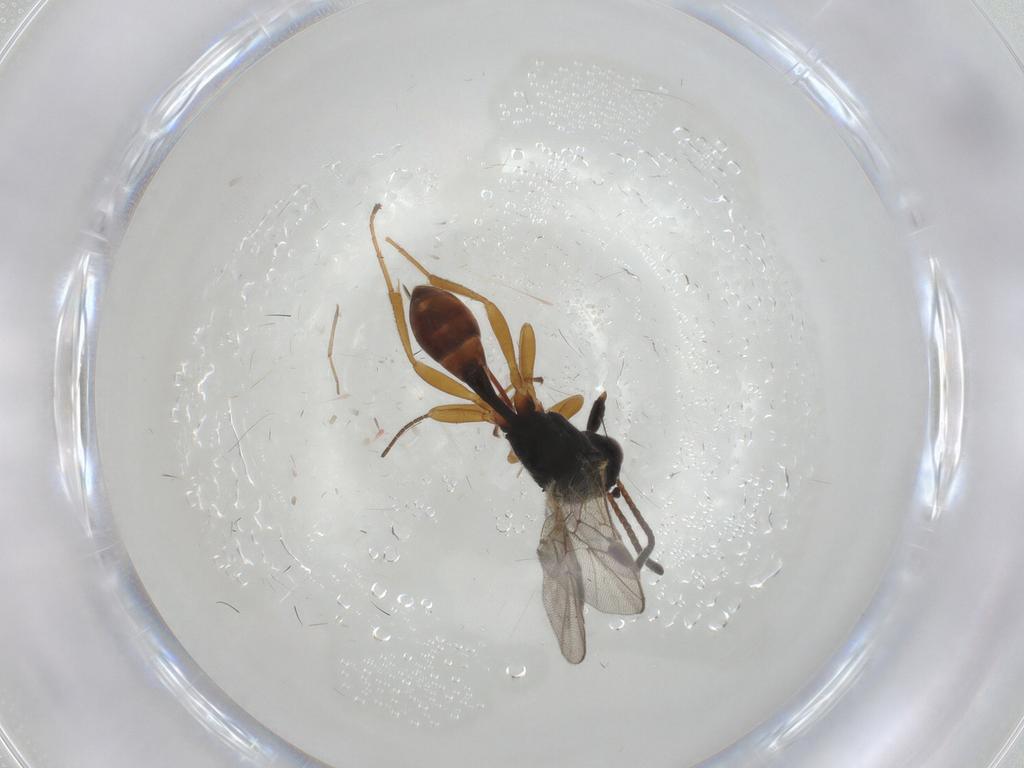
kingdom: Animalia
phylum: Arthropoda
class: Insecta
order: Hymenoptera
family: Ichneumonidae
